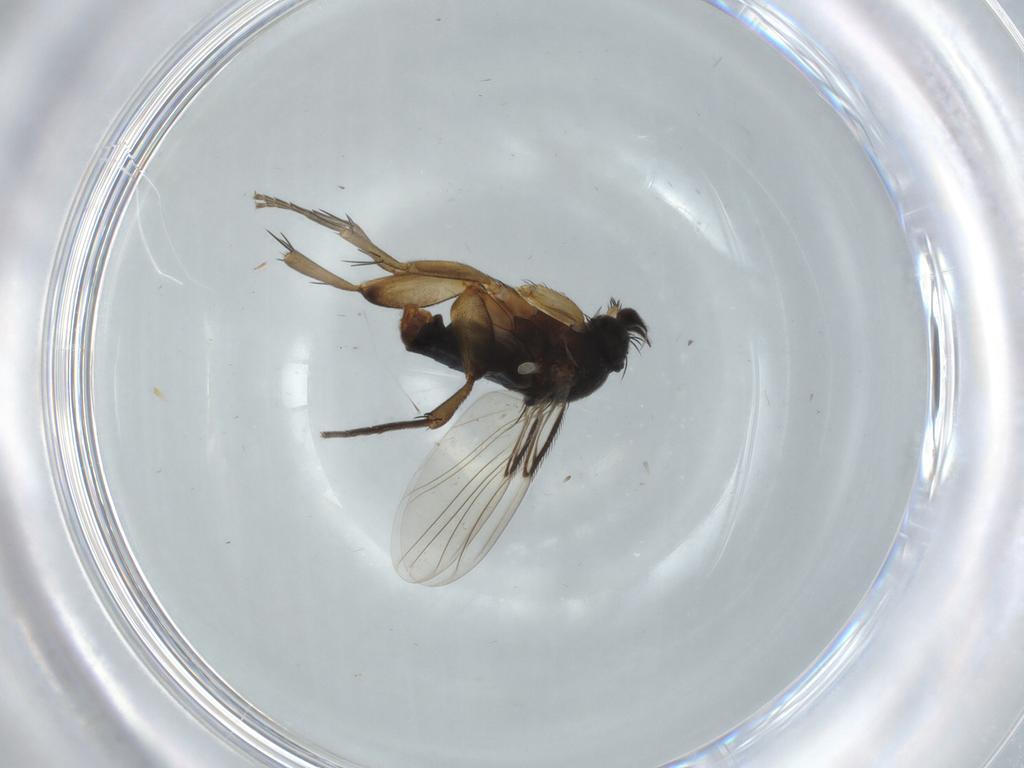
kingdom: Animalia
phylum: Arthropoda
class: Insecta
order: Diptera
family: Phoridae
